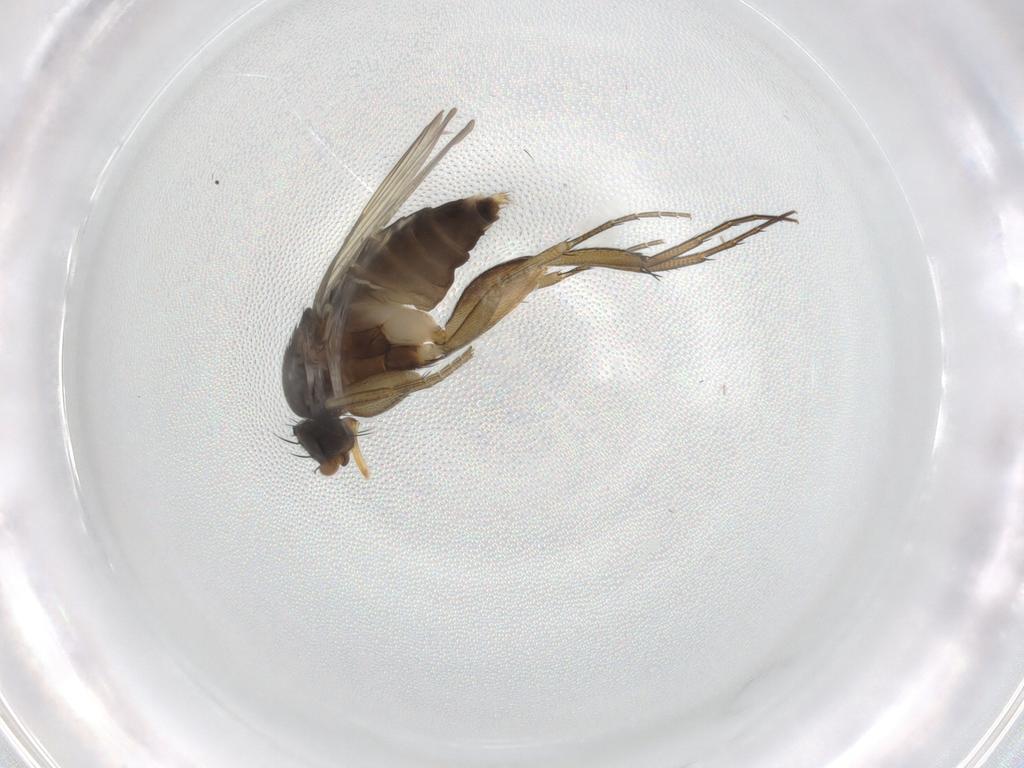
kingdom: Animalia
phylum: Arthropoda
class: Insecta
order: Diptera
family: Phoridae
